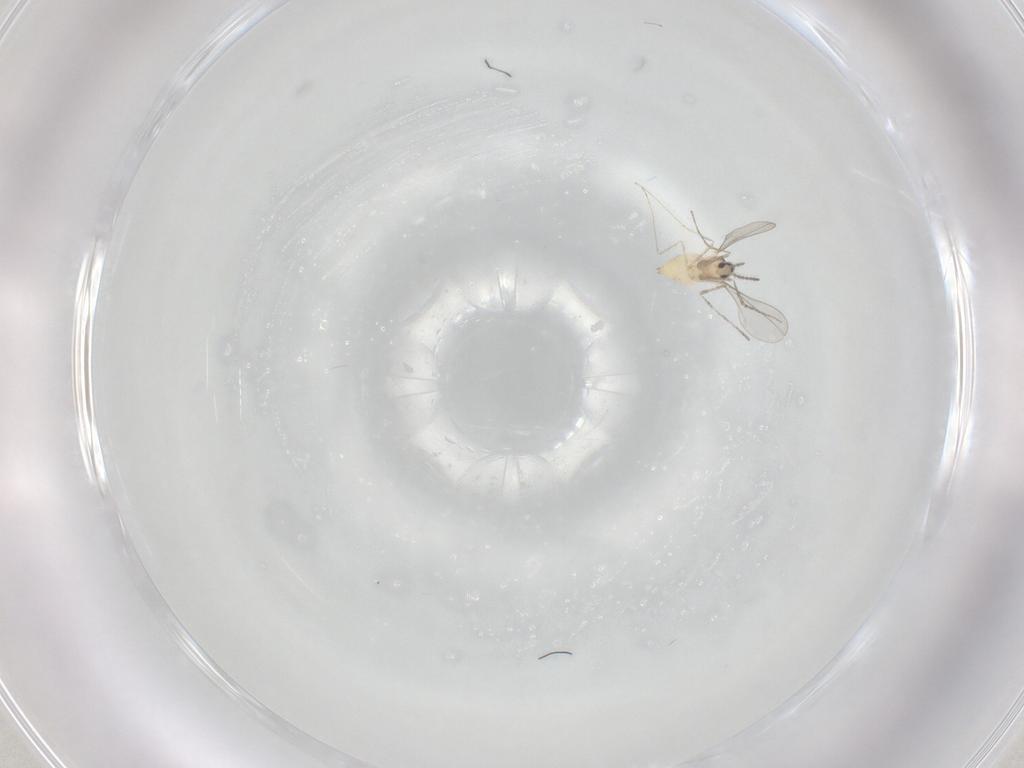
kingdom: Animalia
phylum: Arthropoda
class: Insecta
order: Diptera
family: Cecidomyiidae
